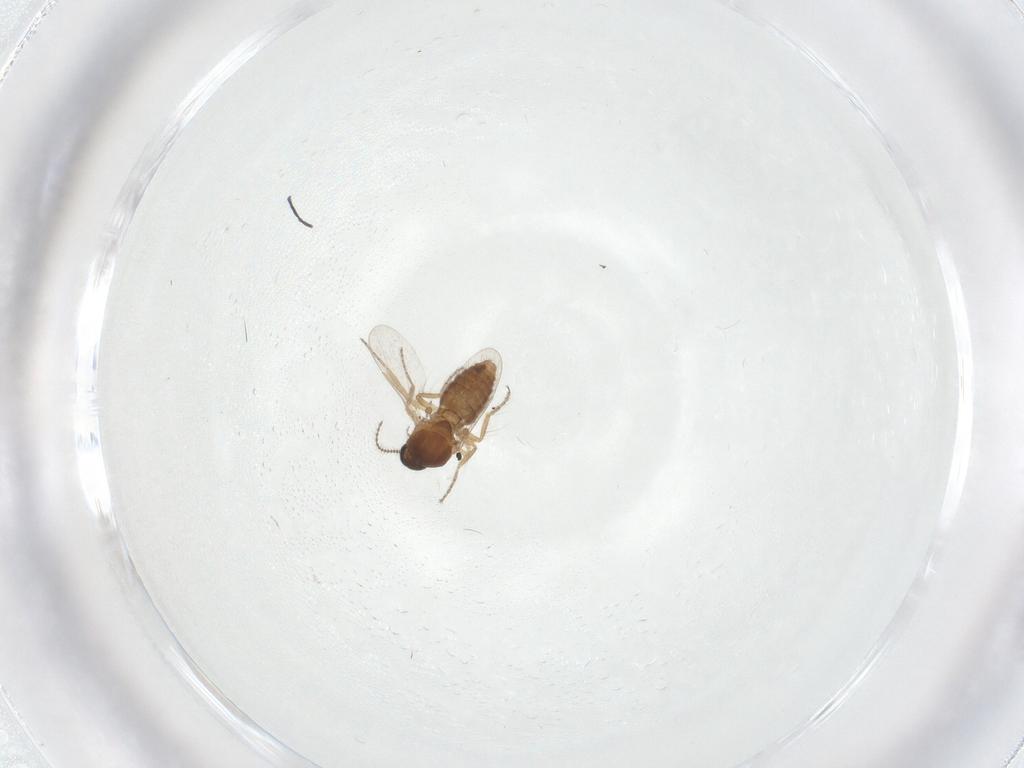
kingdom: Animalia
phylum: Arthropoda
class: Insecta
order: Diptera
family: Ceratopogonidae
